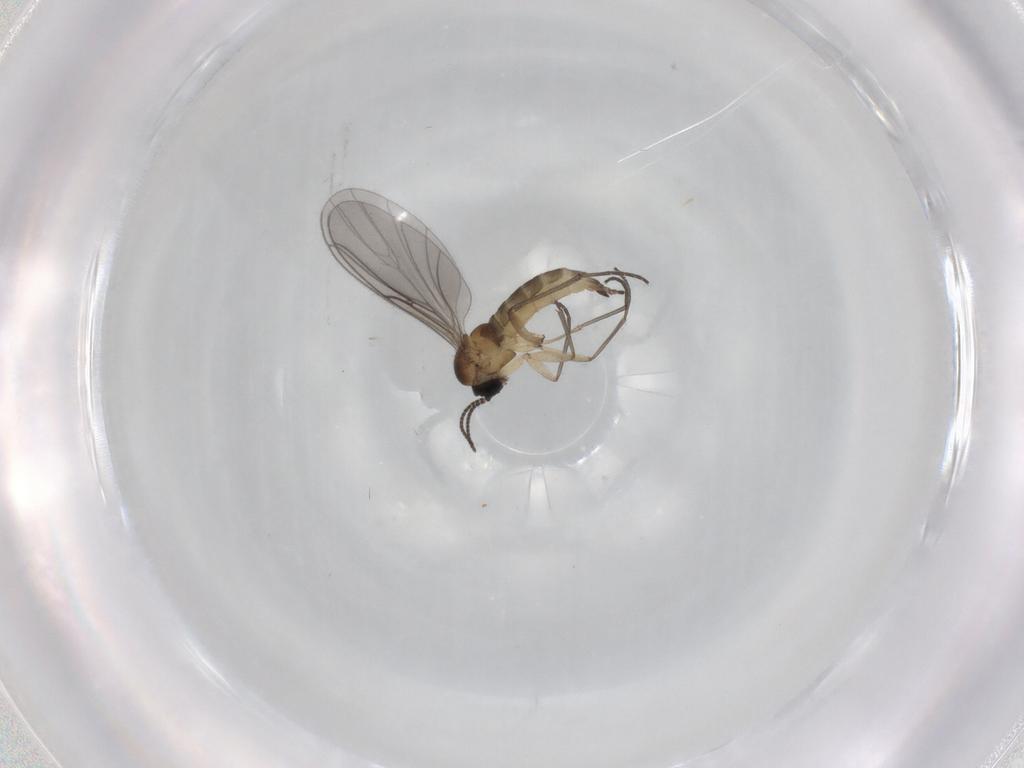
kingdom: Animalia
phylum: Arthropoda
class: Insecta
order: Diptera
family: Sciaridae
